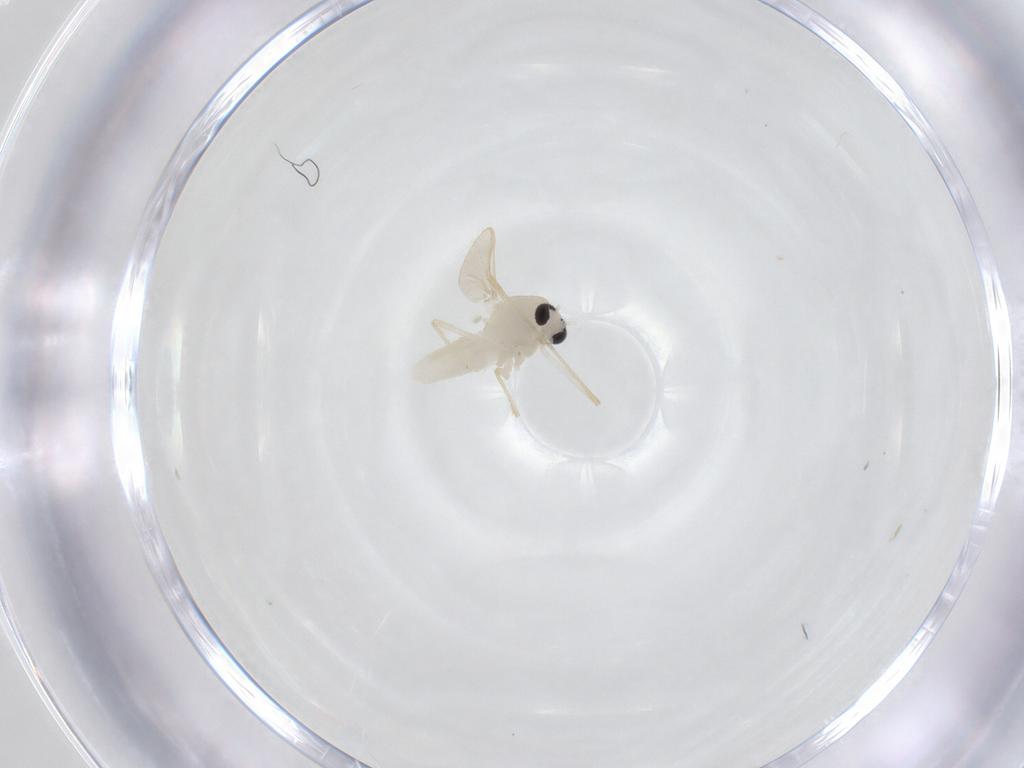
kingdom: Animalia
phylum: Arthropoda
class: Insecta
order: Diptera
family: Chironomidae
